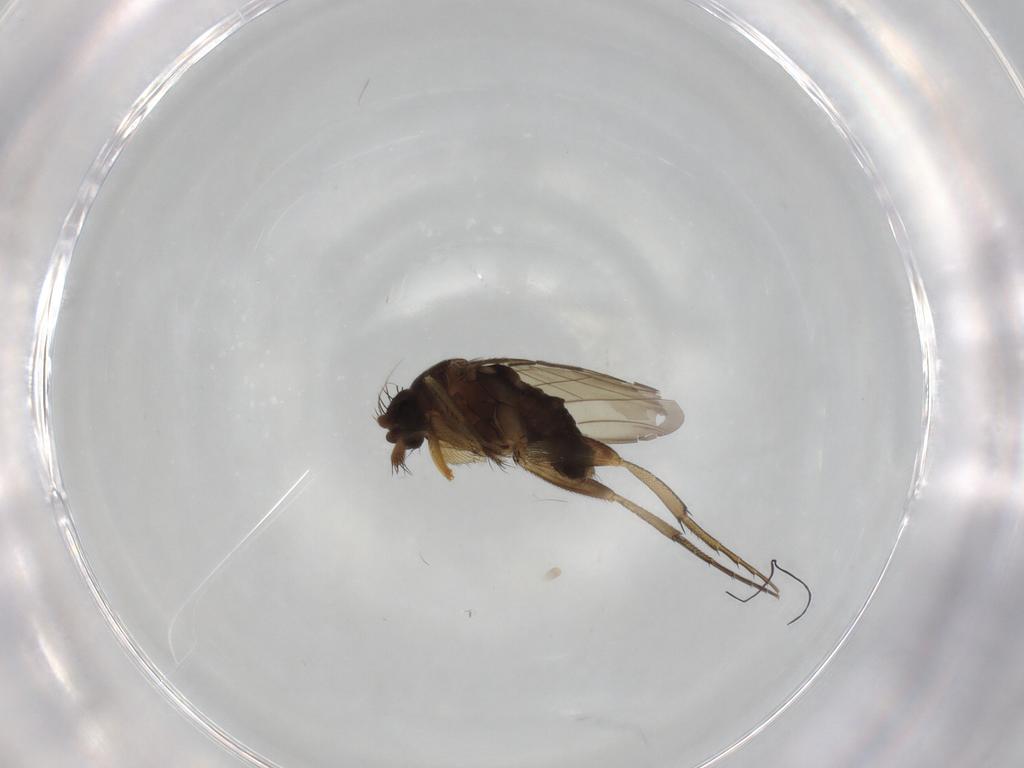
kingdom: Animalia
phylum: Arthropoda
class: Insecta
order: Diptera
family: Phoridae
